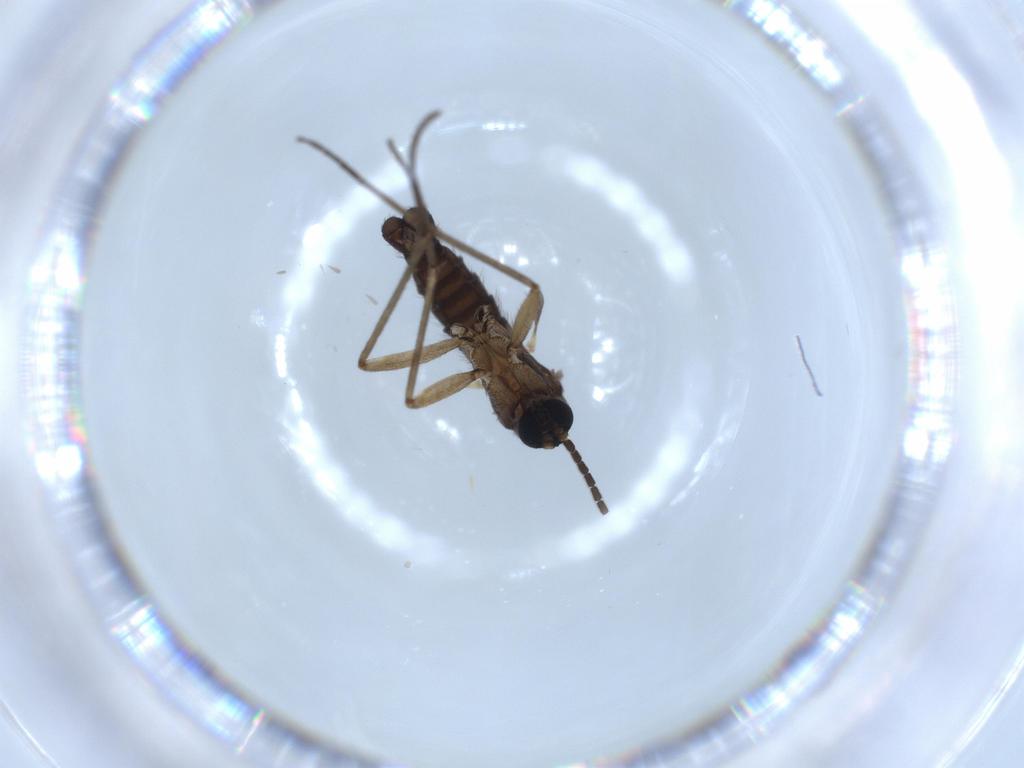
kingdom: Animalia
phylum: Arthropoda
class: Insecta
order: Diptera
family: Sciaridae
